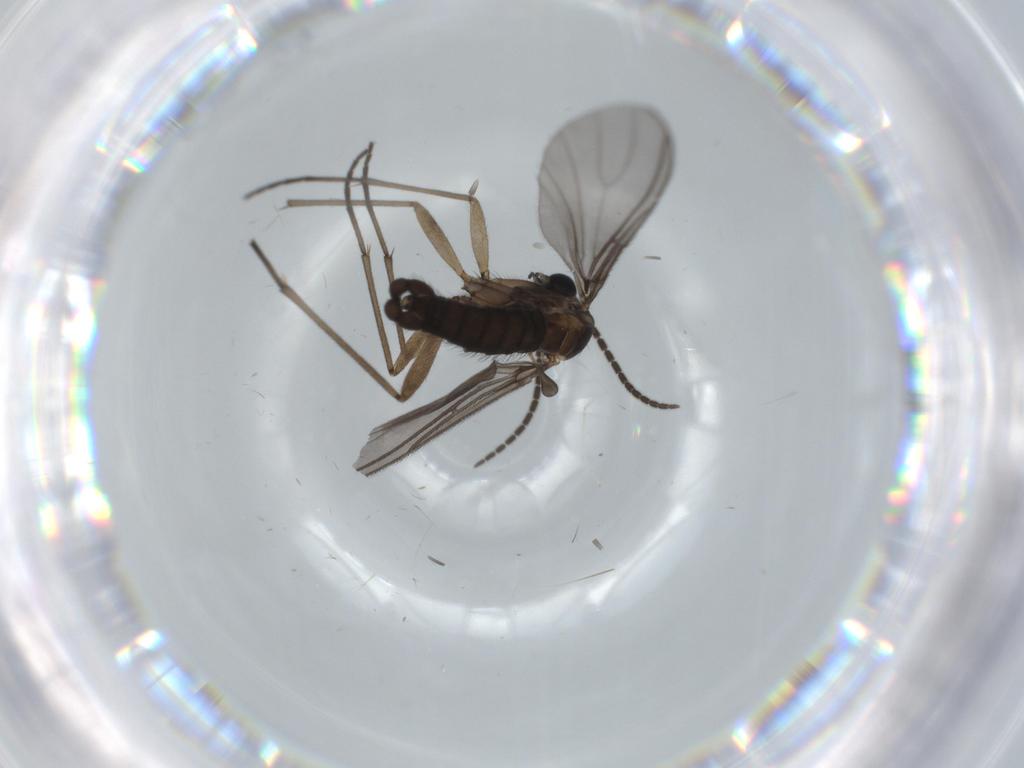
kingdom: Animalia
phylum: Arthropoda
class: Insecta
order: Diptera
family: Sciaridae
